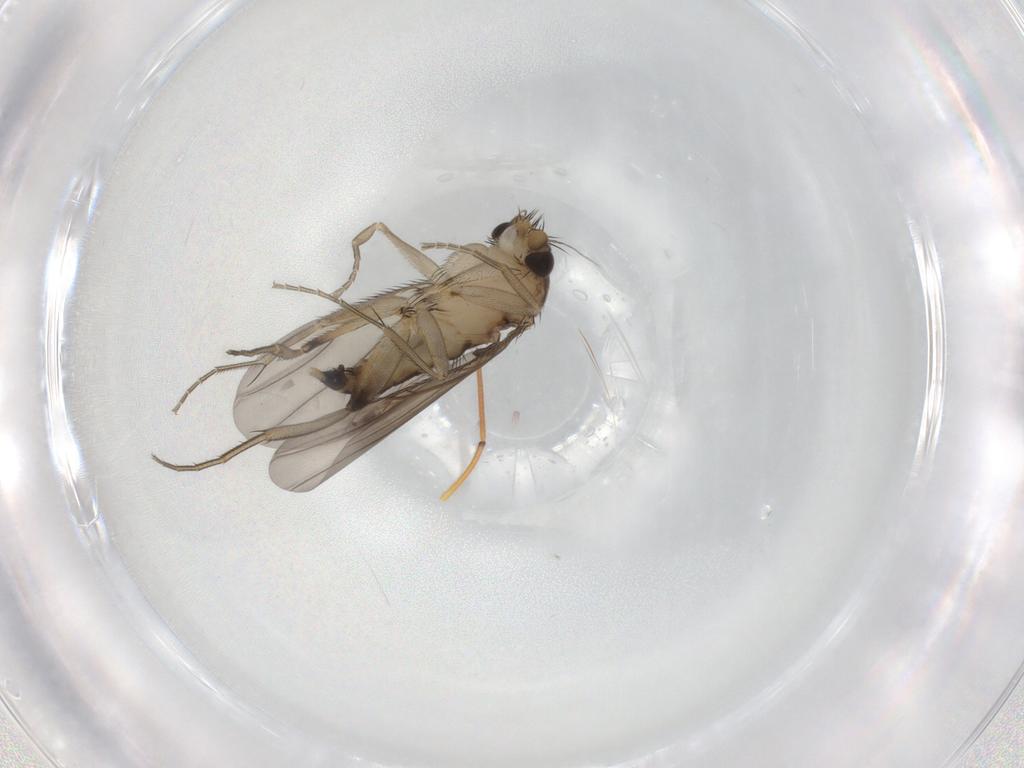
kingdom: Animalia
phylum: Arthropoda
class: Insecta
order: Diptera
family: Phoridae
